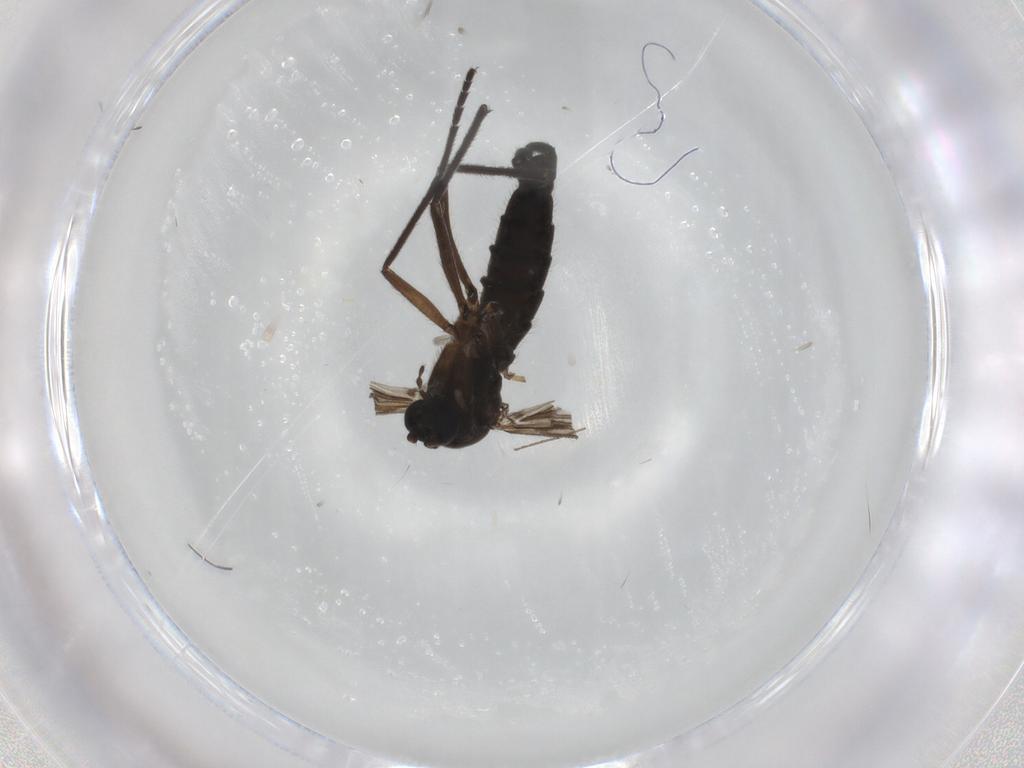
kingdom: Animalia
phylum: Arthropoda
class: Insecta
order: Diptera
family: Sciaridae
